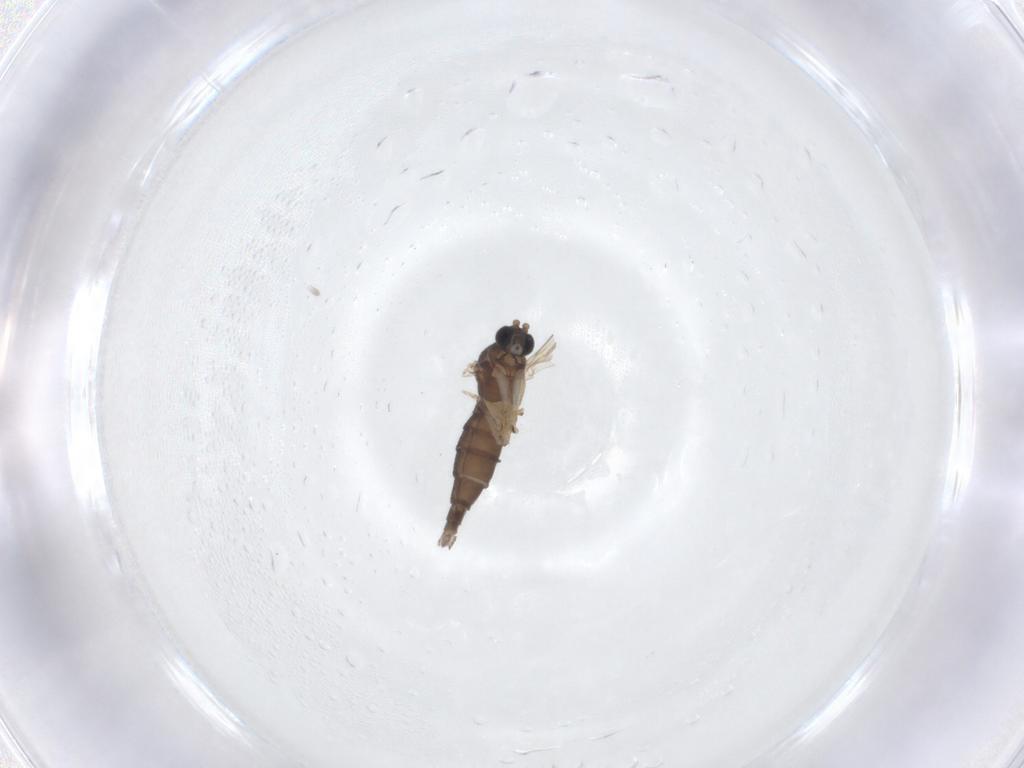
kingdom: Animalia
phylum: Arthropoda
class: Insecta
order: Diptera
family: Sciaridae
